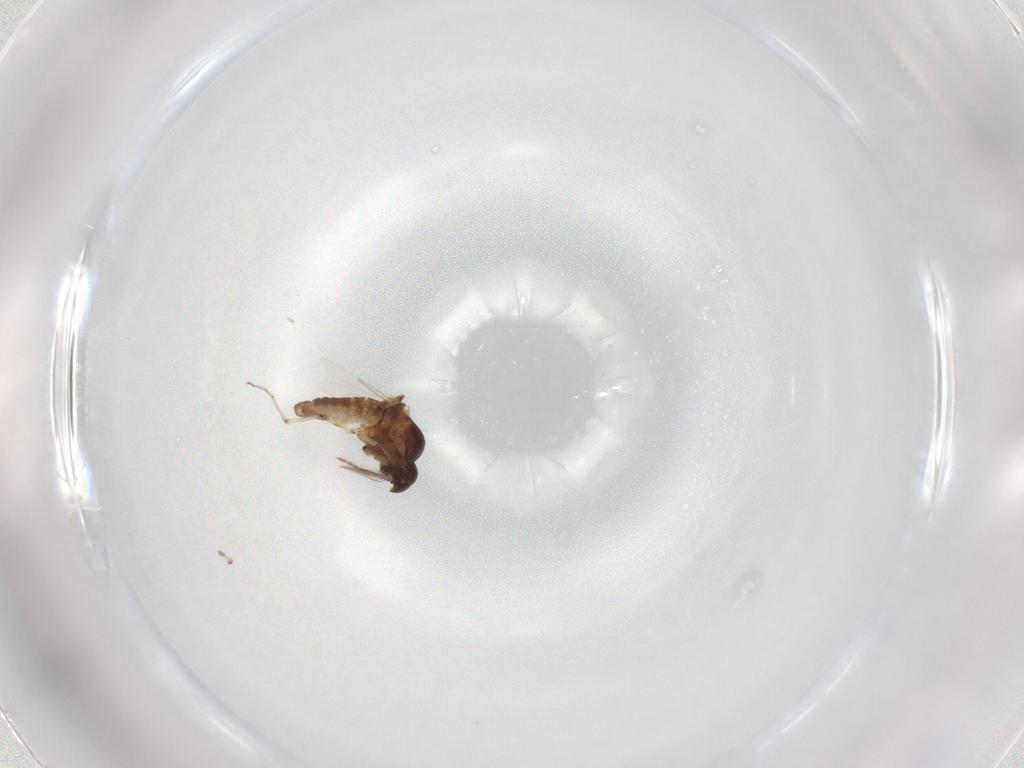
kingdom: Animalia
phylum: Arthropoda
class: Insecta
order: Diptera
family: Ceratopogonidae
